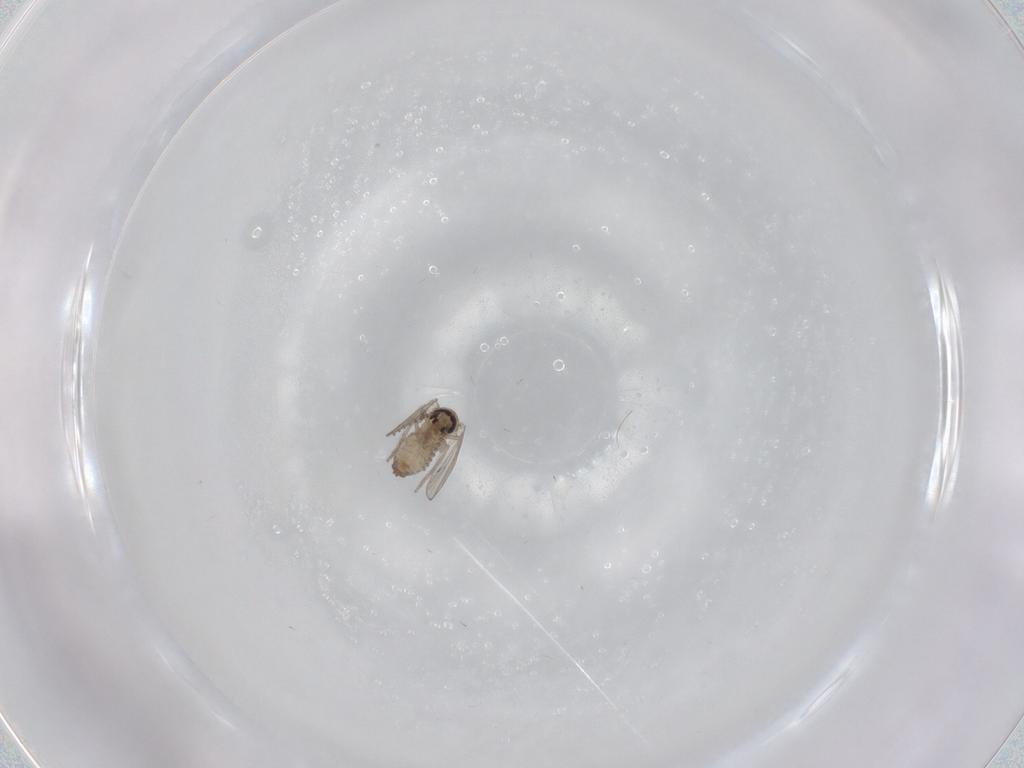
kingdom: Animalia
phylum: Arthropoda
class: Insecta
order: Diptera
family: Psychodidae
